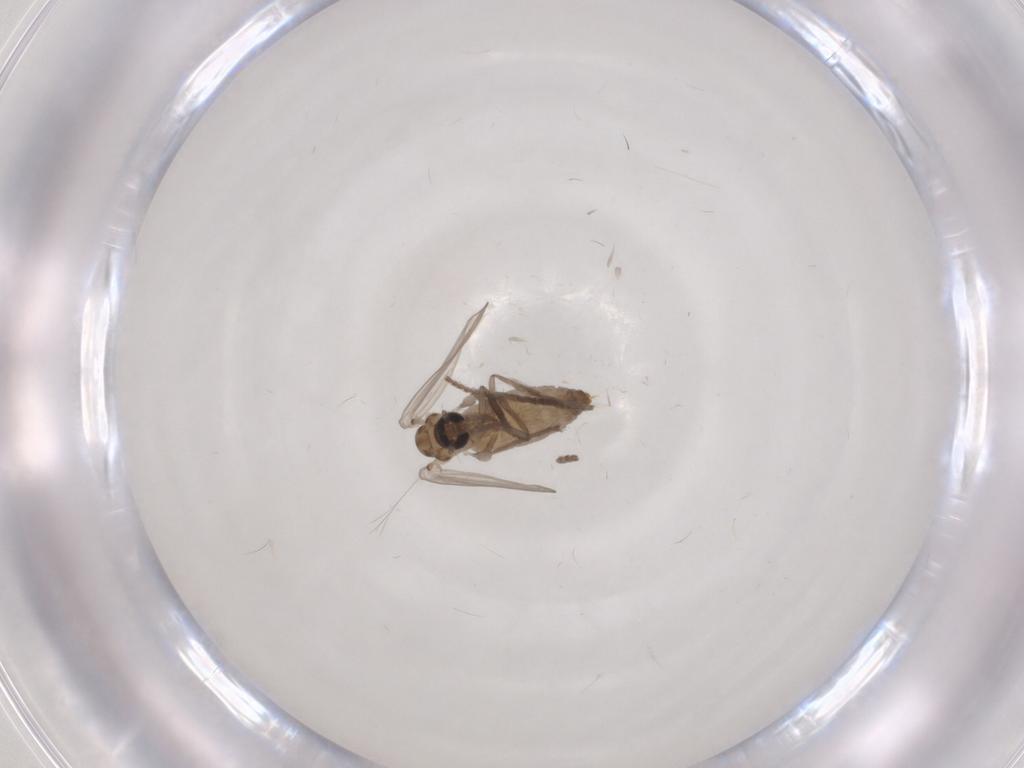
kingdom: Animalia
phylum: Arthropoda
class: Insecta
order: Diptera
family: Psychodidae
